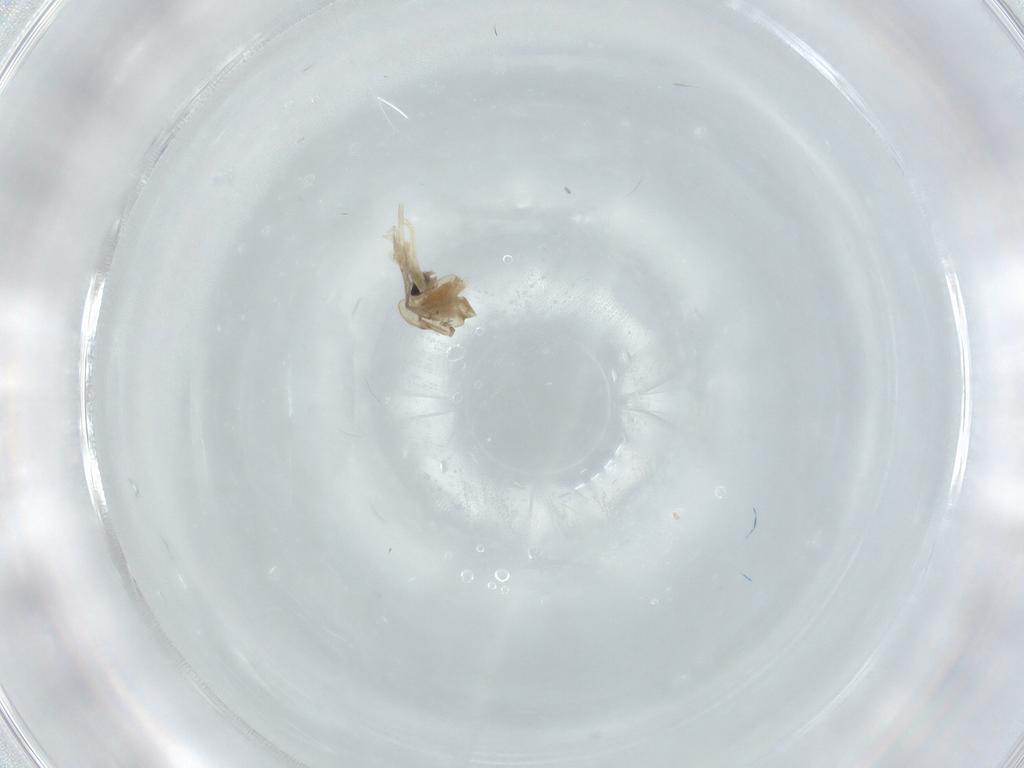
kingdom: Animalia
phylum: Arthropoda
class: Insecta
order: Diptera
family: Chironomidae
